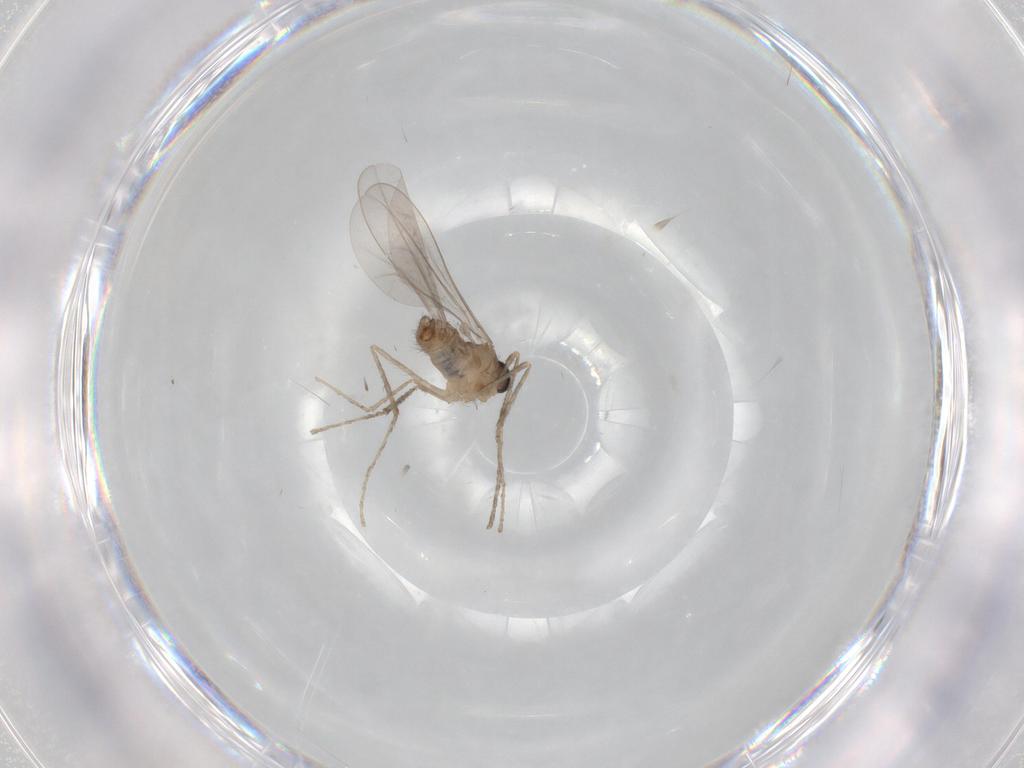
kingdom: Animalia
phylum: Arthropoda
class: Insecta
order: Diptera
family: Cecidomyiidae
